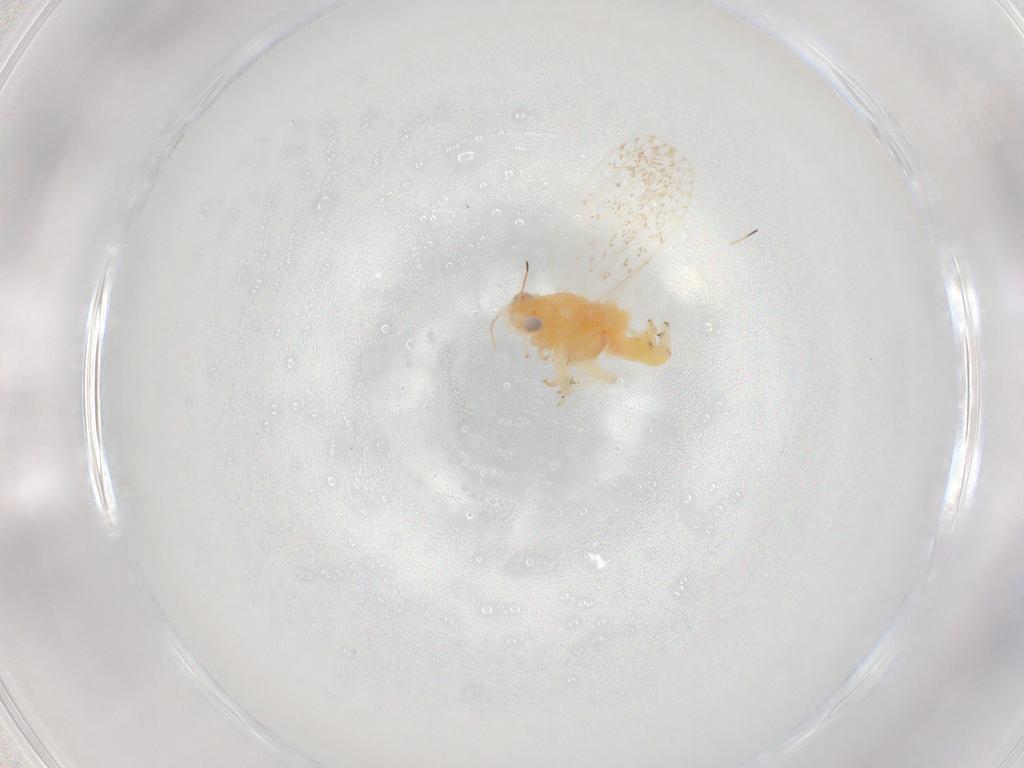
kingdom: Animalia
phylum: Arthropoda
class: Insecta
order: Hemiptera
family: Psyllidae
